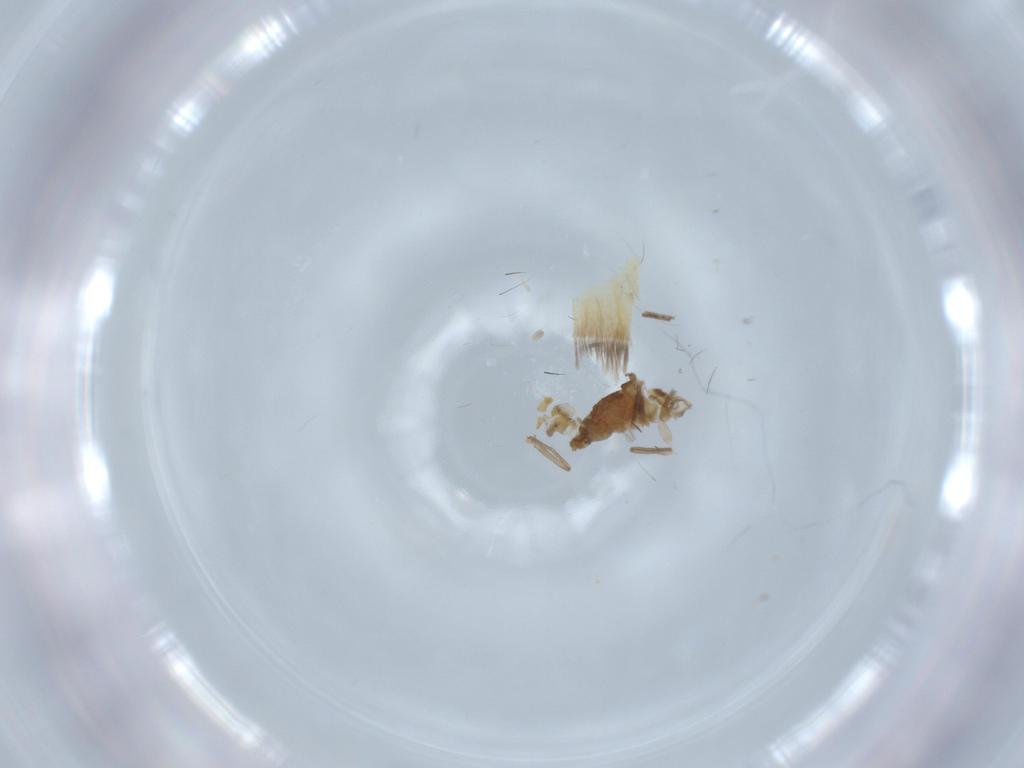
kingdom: Animalia
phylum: Arthropoda
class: Insecta
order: Diptera
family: Chironomidae
